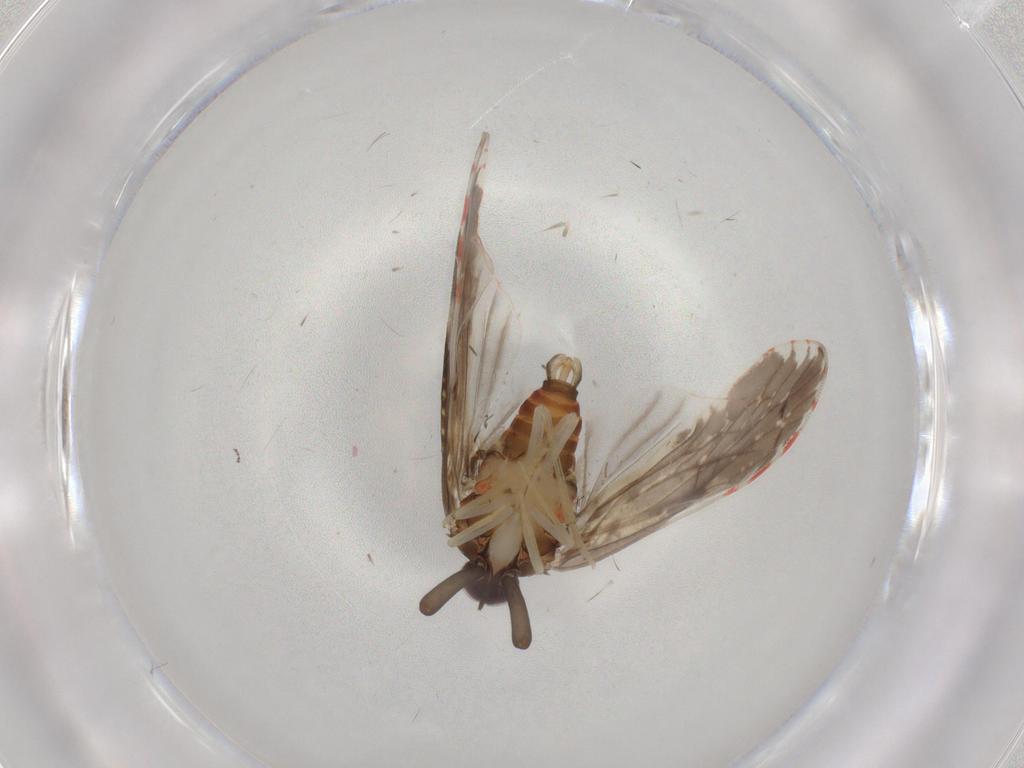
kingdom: Animalia
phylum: Arthropoda
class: Insecta
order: Hemiptera
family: Derbidae
